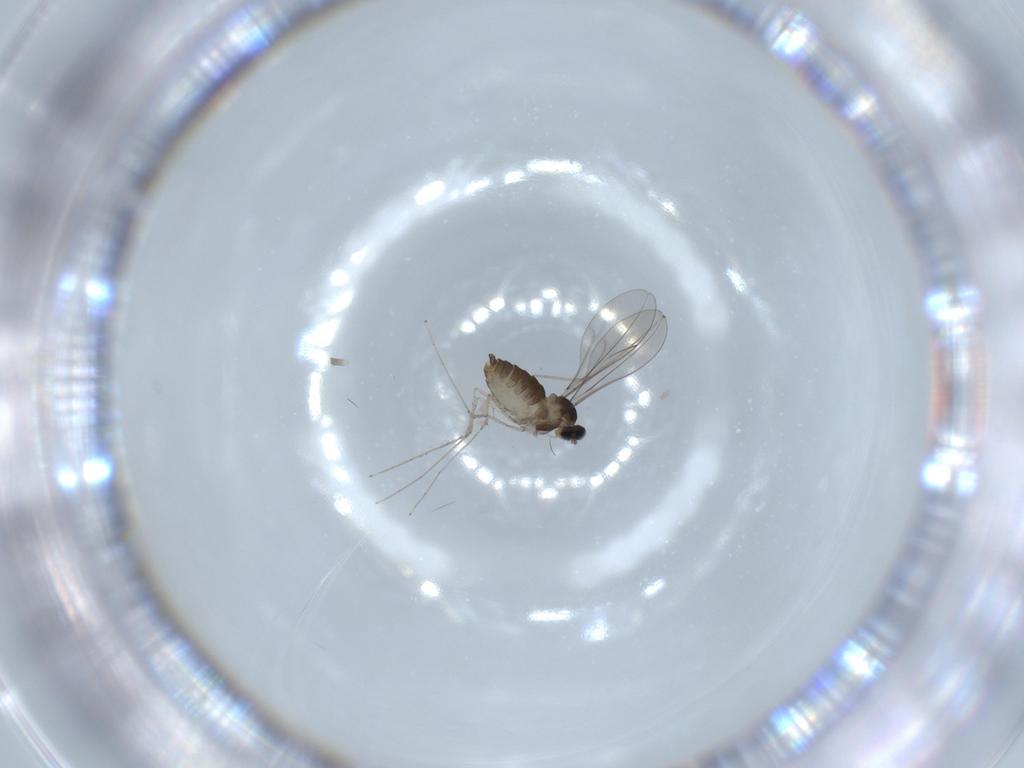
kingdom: Animalia
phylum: Arthropoda
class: Insecta
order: Diptera
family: Cecidomyiidae
